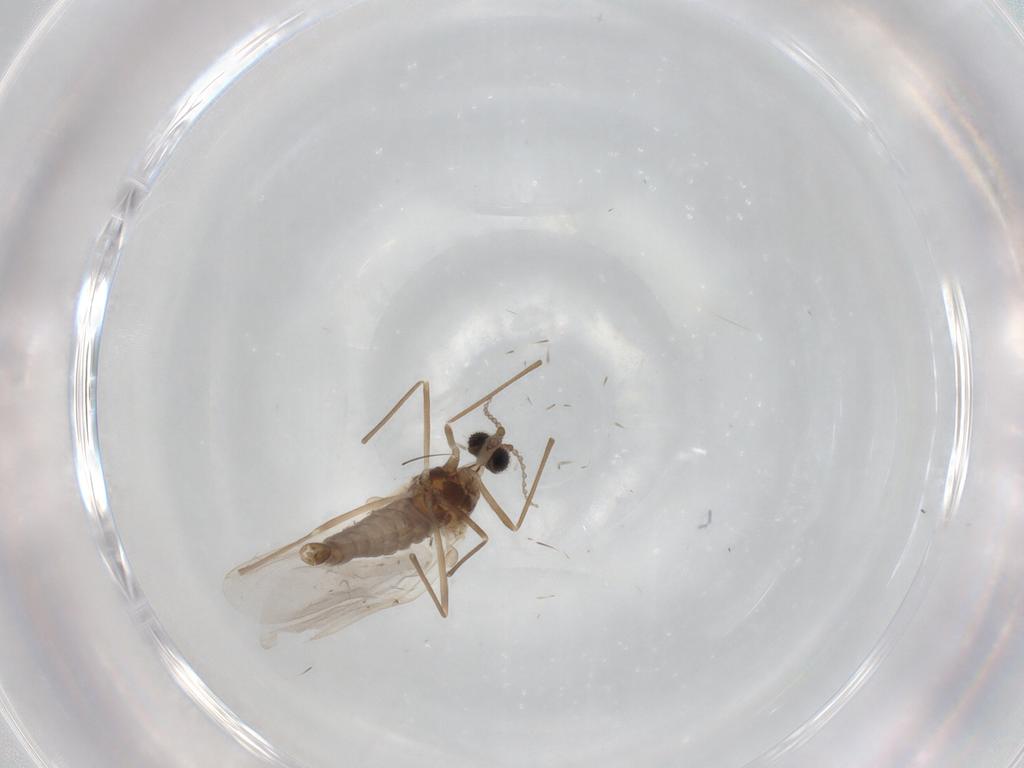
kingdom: Animalia
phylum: Arthropoda
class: Insecta
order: Diptera
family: Cecidomyiidae
